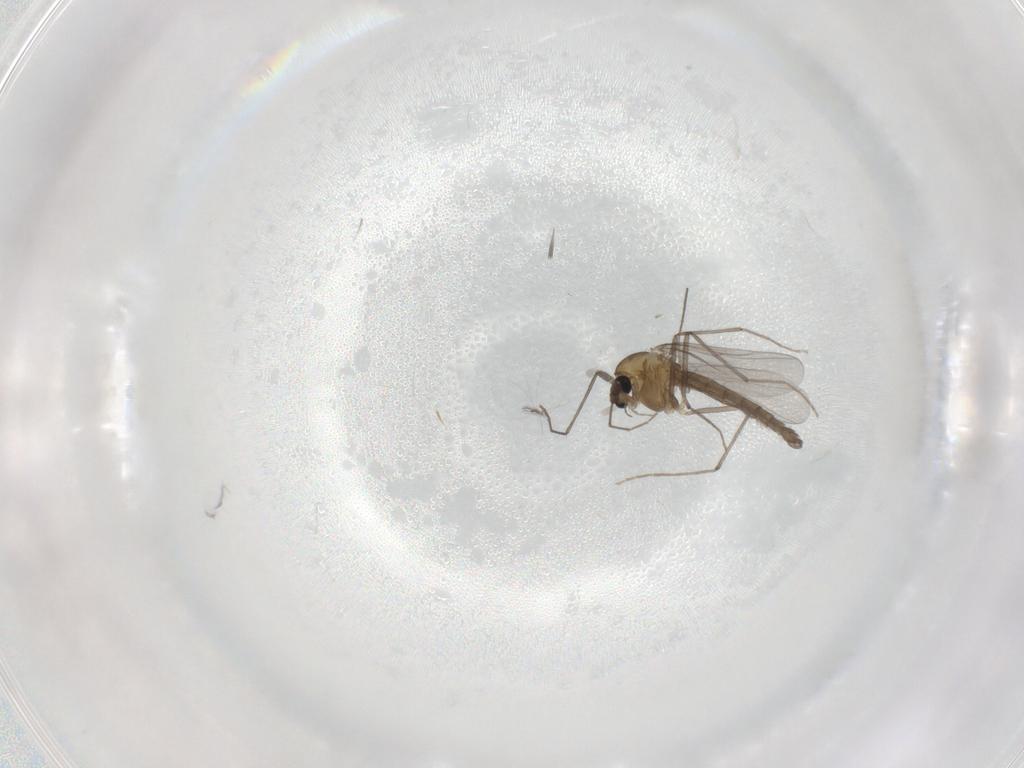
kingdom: Animalia
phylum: Arthropoda
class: Insecta
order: Diptera
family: Chironomidae
